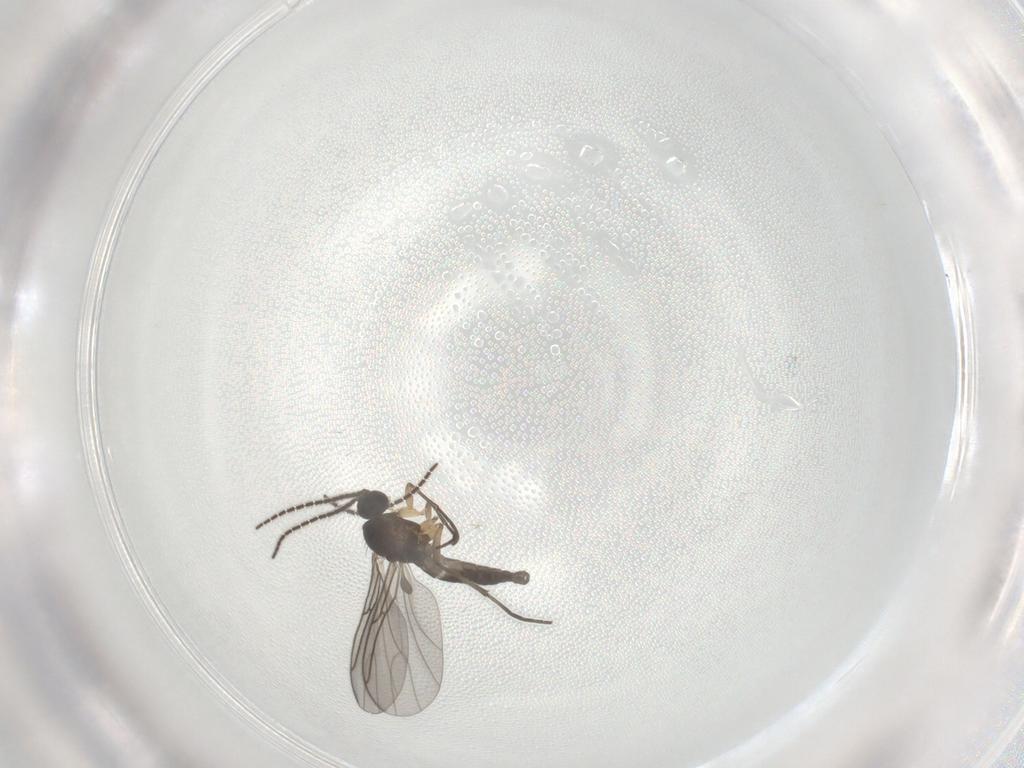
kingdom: Animalia
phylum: Arthropoda
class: Insecta
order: Diptera
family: Sciaridae
